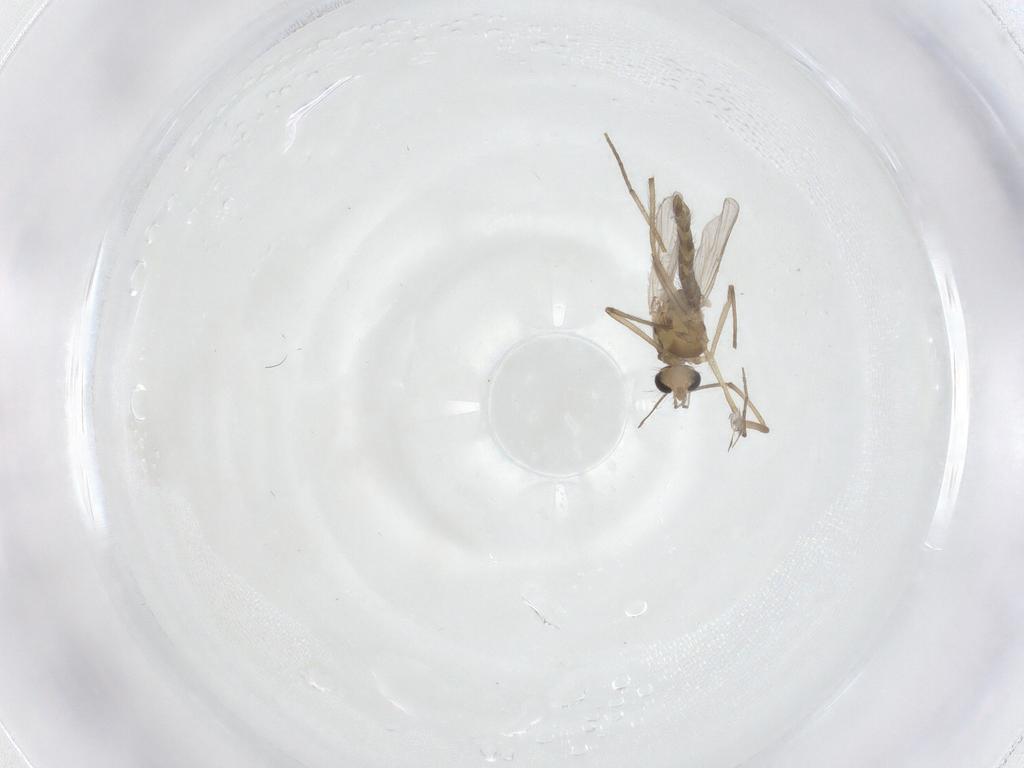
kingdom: Animalia
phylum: Arthropoda
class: Insecta
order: Diptera
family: Chironomidae
